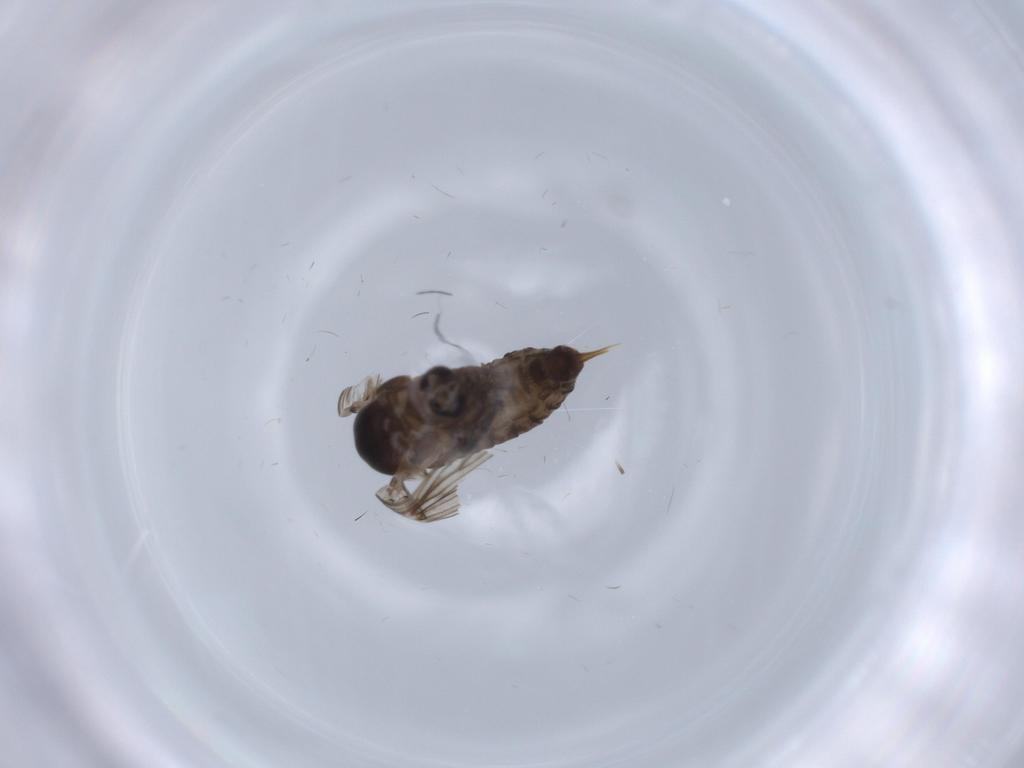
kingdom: Animalia
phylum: Arthropoda
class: Insecta
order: Diptera
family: Psychodidae
